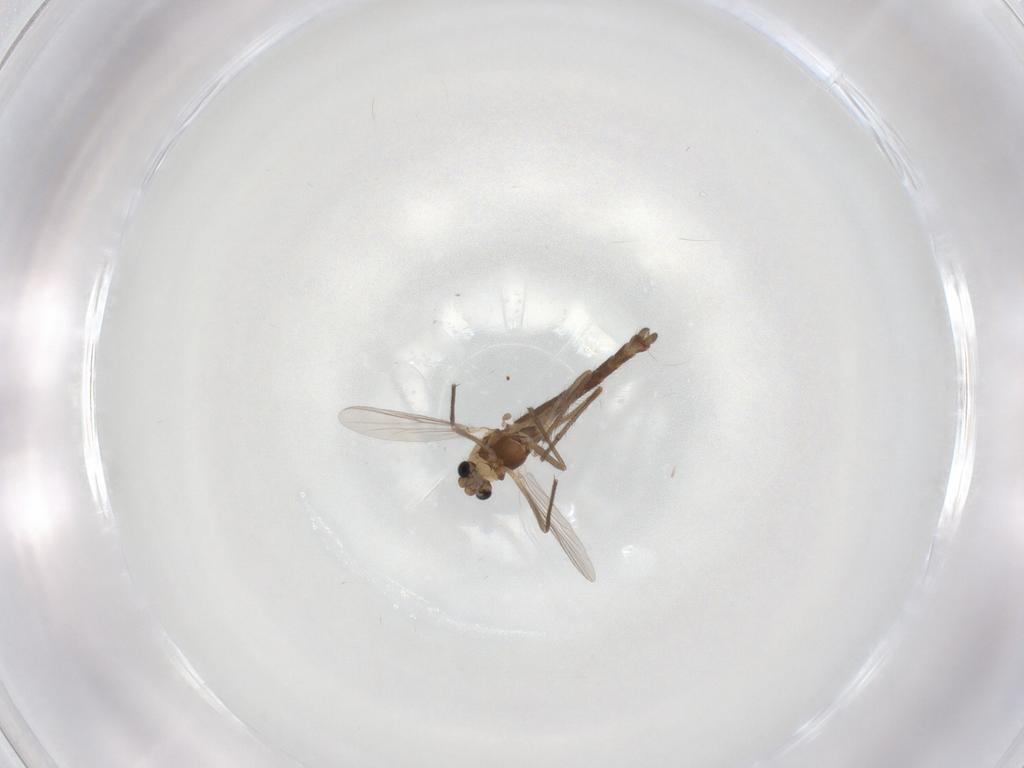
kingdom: Animalia
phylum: Arthropoda
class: Insecta
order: Diptera
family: Chironomidae
